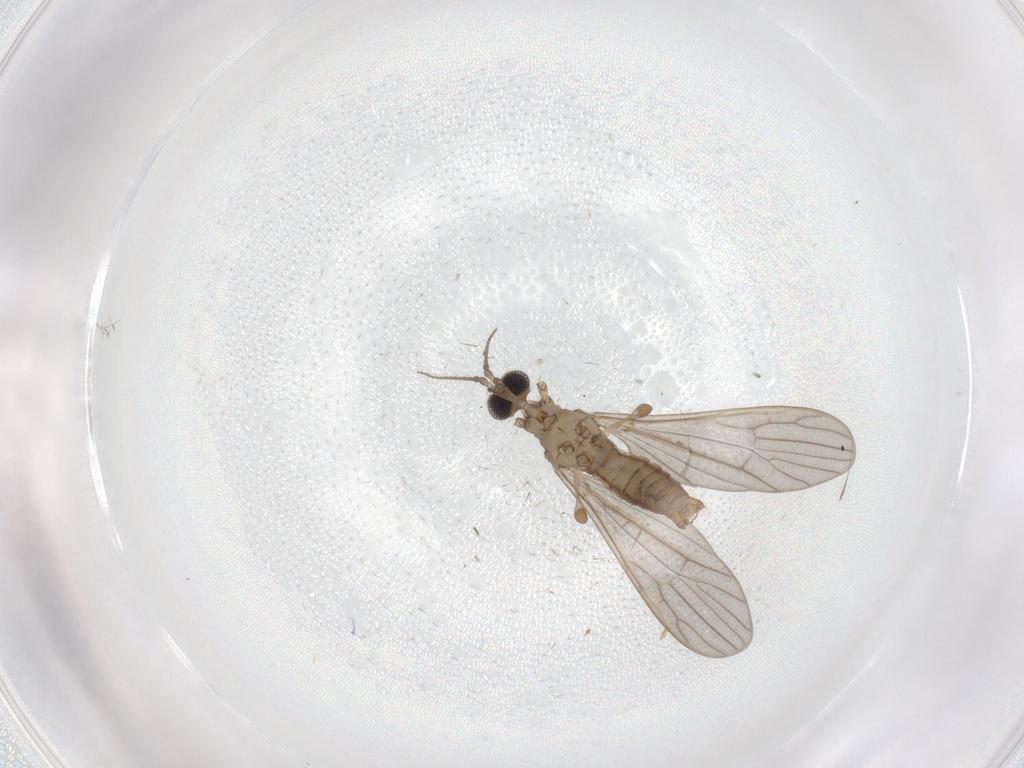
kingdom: Animalia
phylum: Arthropoda
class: Insecta
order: Diptera
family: Limoniidae
